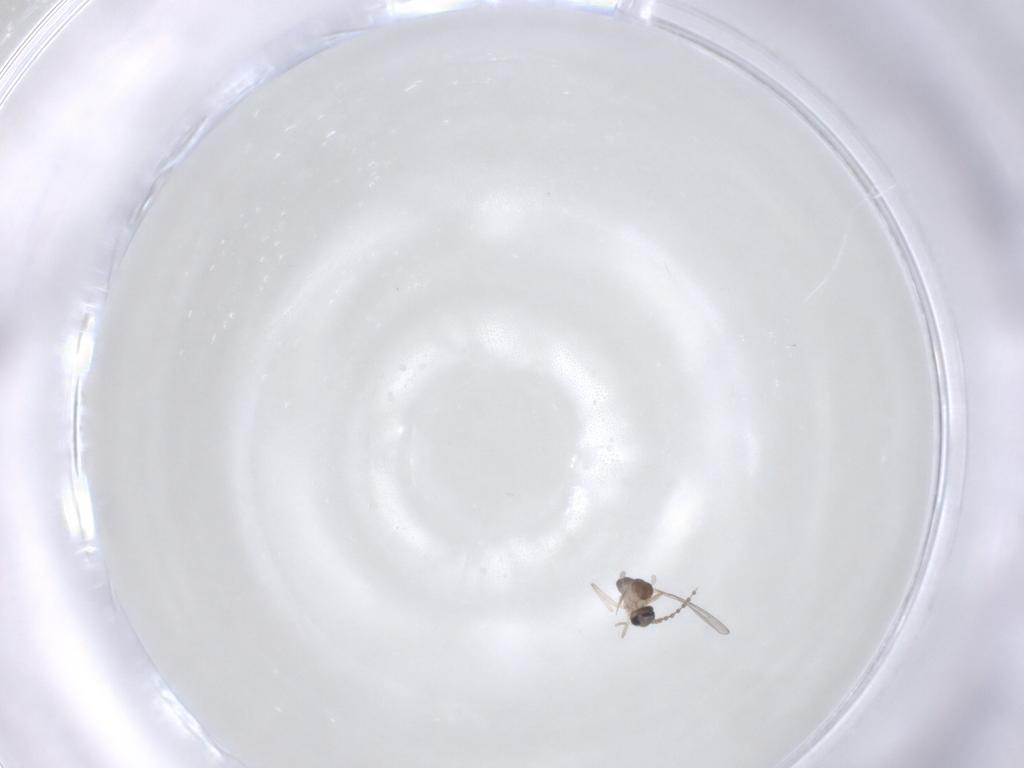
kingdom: Animalia
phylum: Arthropoda
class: Insecta
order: Diptera
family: Cecidomyiidae
